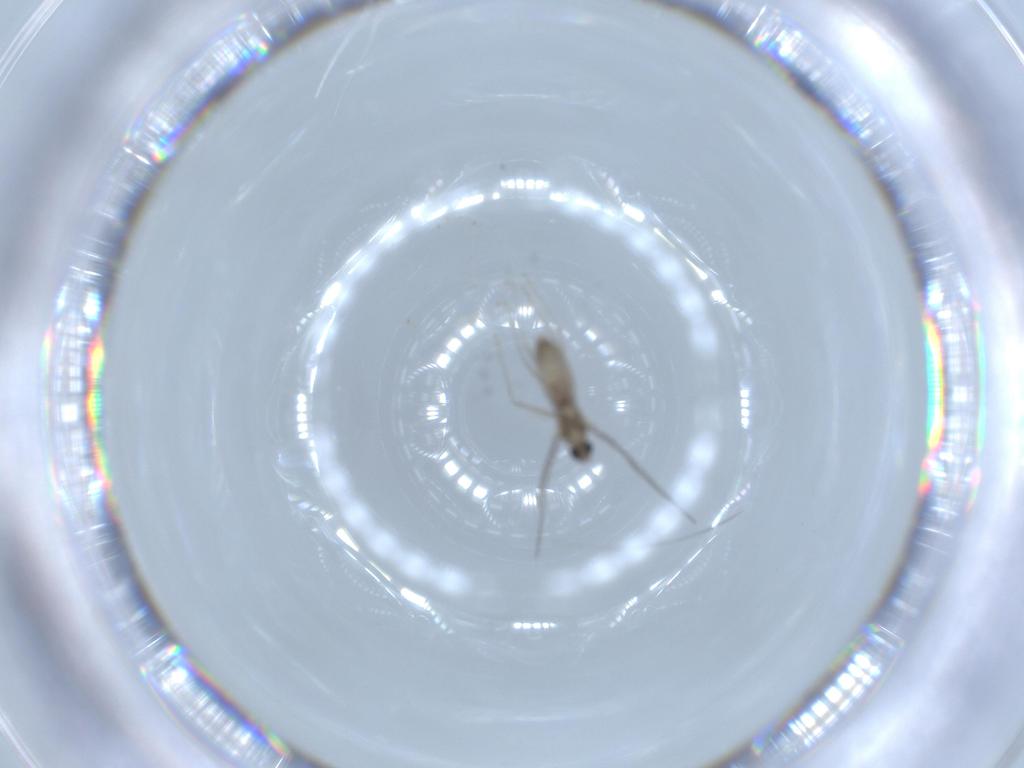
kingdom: Animalia
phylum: Arthropoda
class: Insecta
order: Diptera
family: Cecidomyiidae
